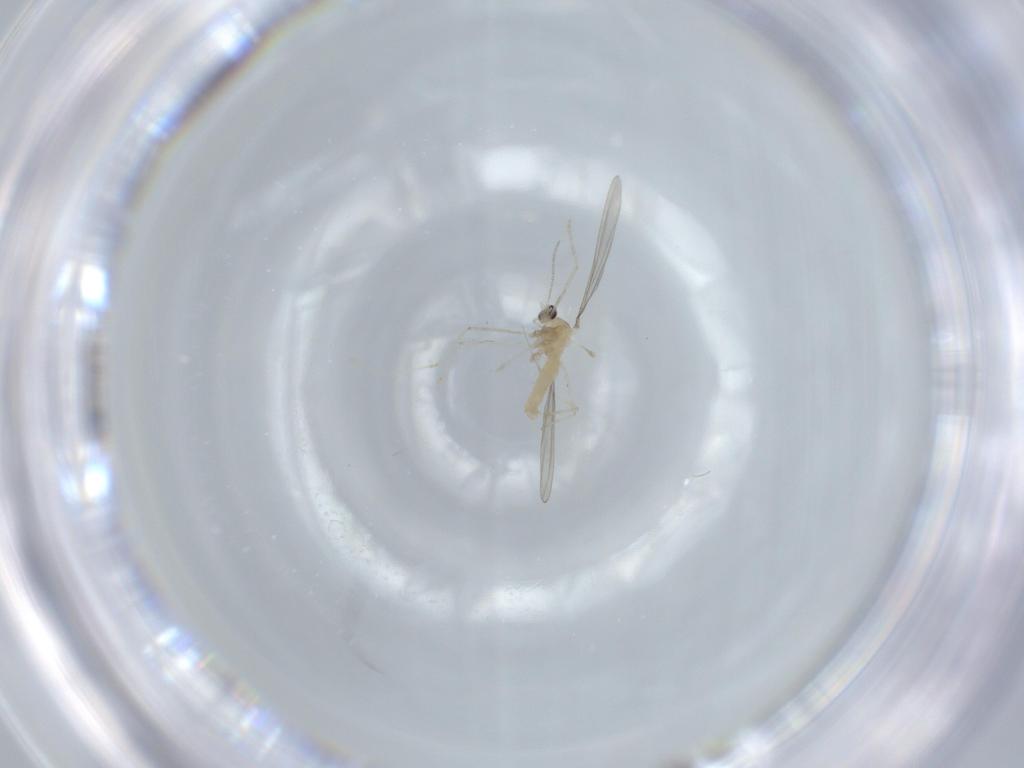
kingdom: Animalia
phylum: Arthropoda
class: Insecta
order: Diptera
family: Cecidomyiidae
